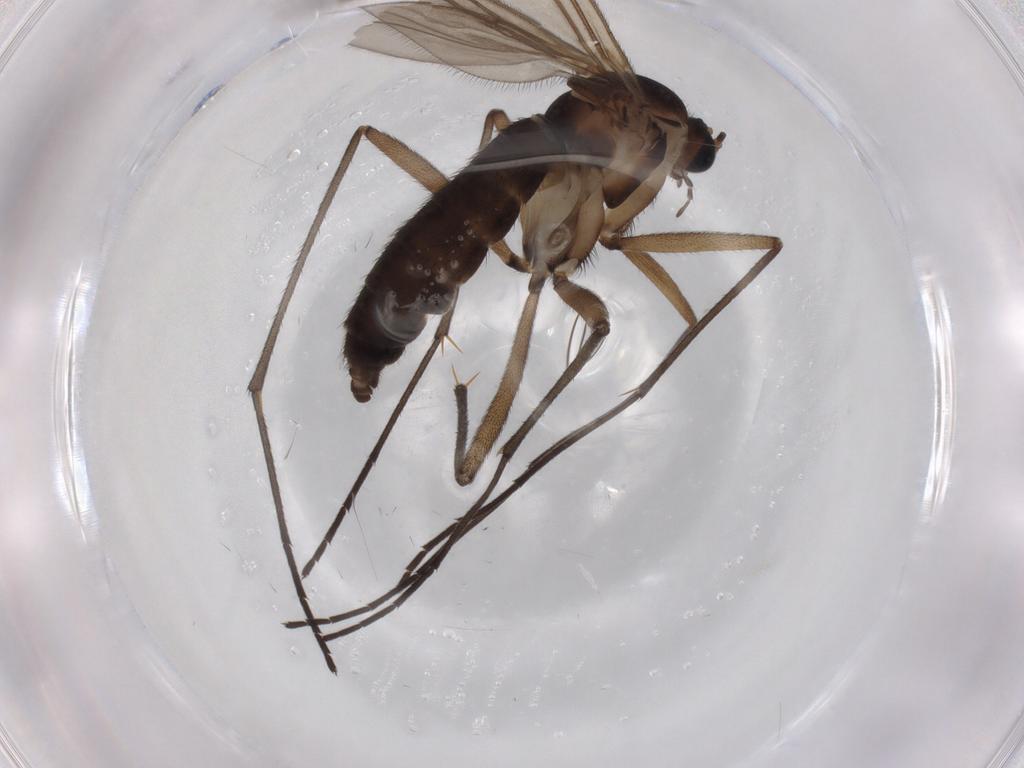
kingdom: Animalia
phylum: Arthropoda
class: Insecta
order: Diptera
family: Sciaridae
